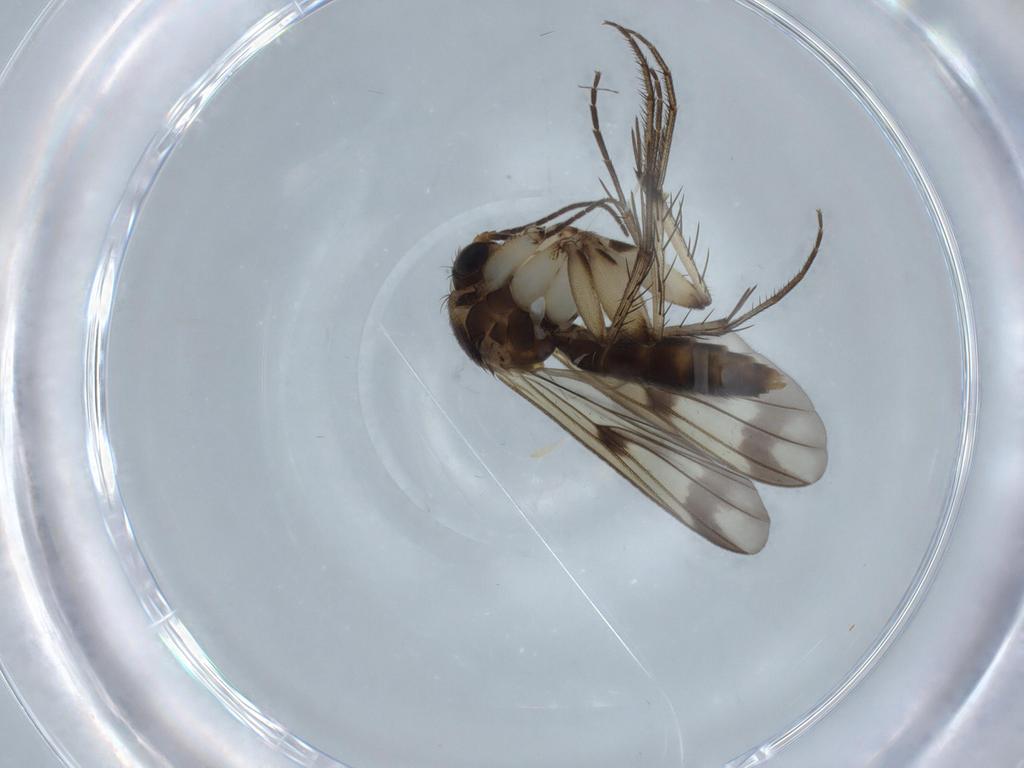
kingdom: Animalia
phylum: Arthropoda
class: Insecta
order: Diptera
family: Mycetophilidae
